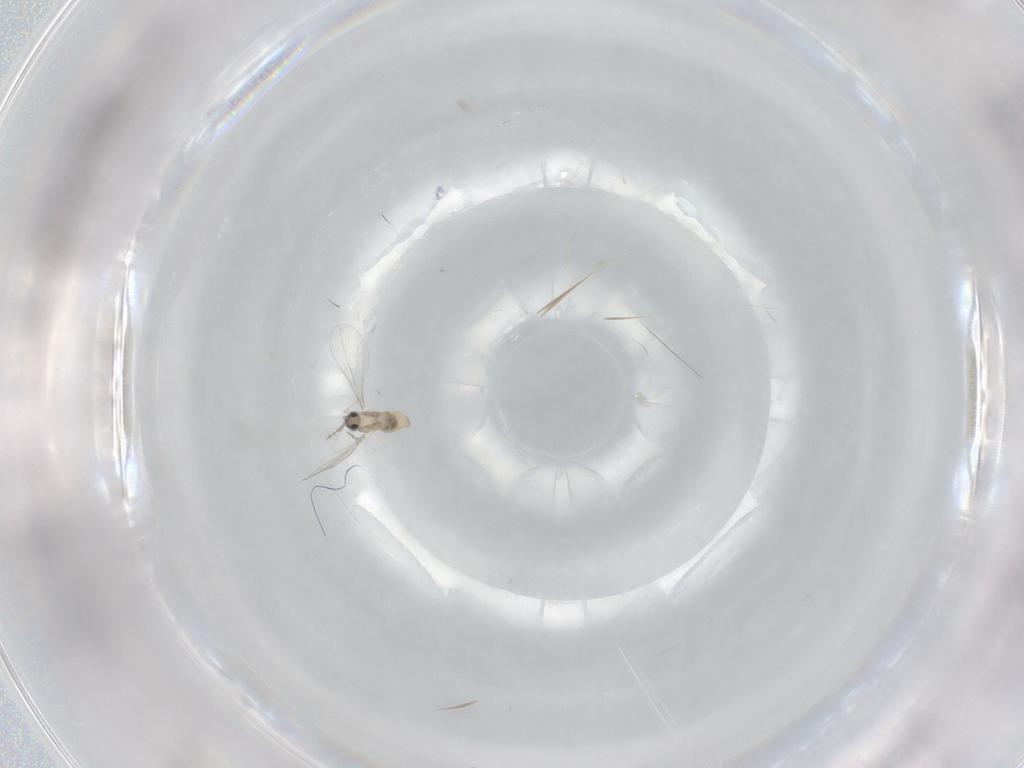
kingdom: Animalia
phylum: Arthropoda
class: Insecta
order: Diptera
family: Cecidomyiidae
